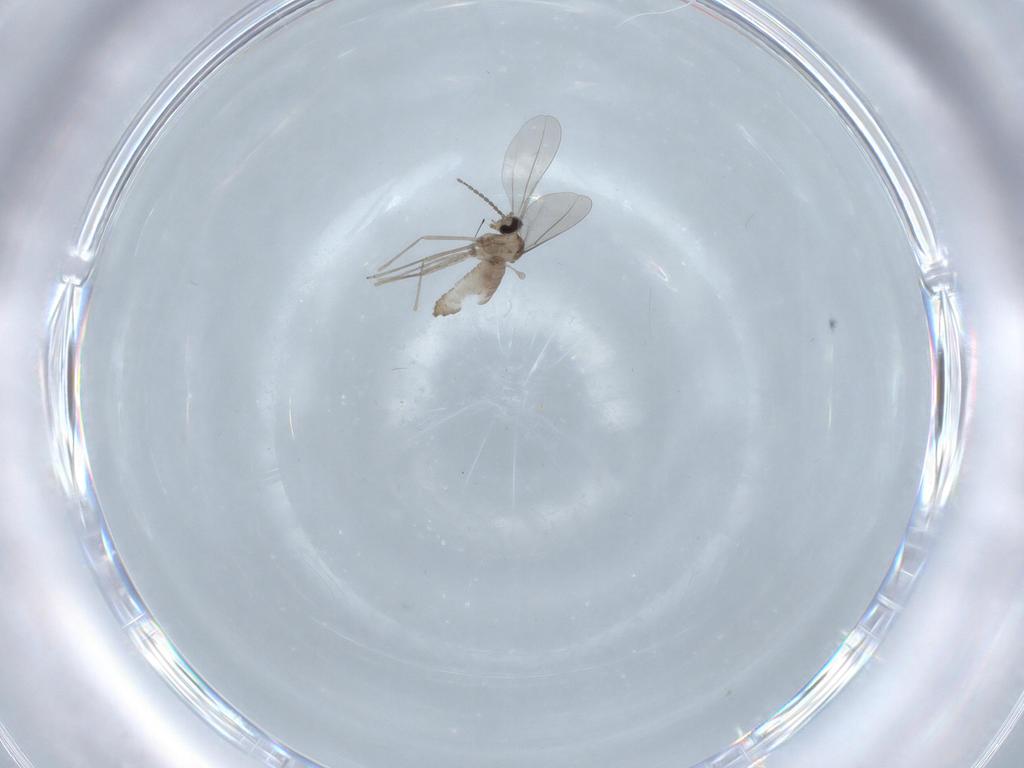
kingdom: Animalia
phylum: Arthropoda
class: Insecta
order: Diptera
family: Cecidomyiidae
